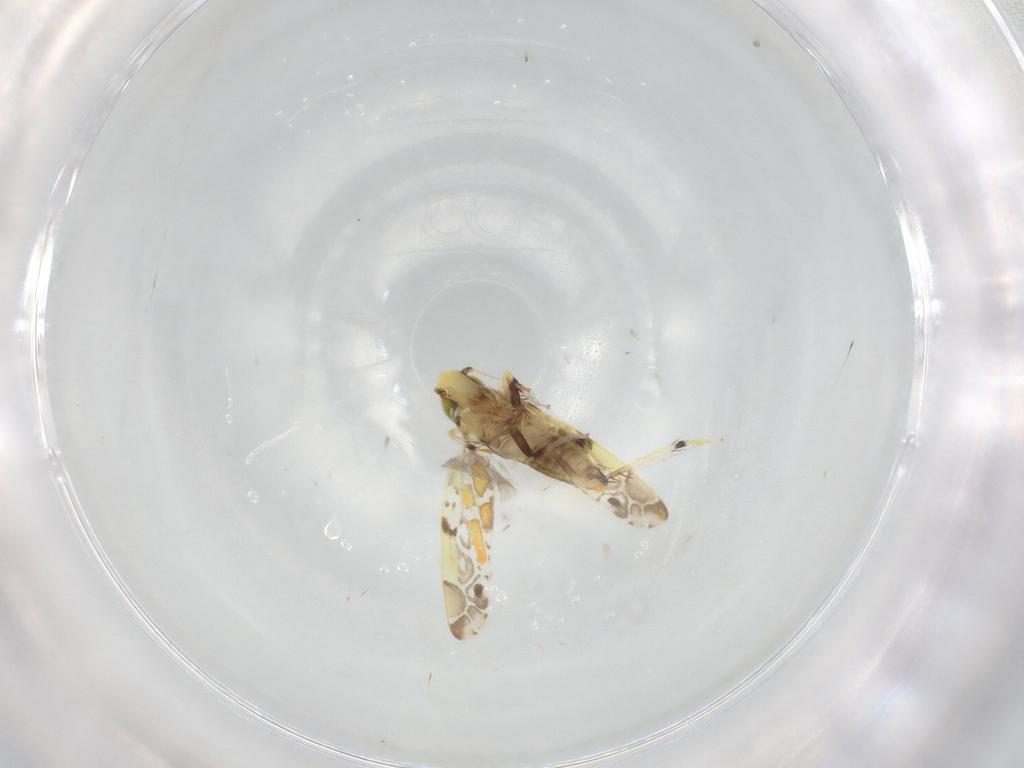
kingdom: Animalia
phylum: Arthropoda
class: Insecta
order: Hemiptera
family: Cicadellidae
